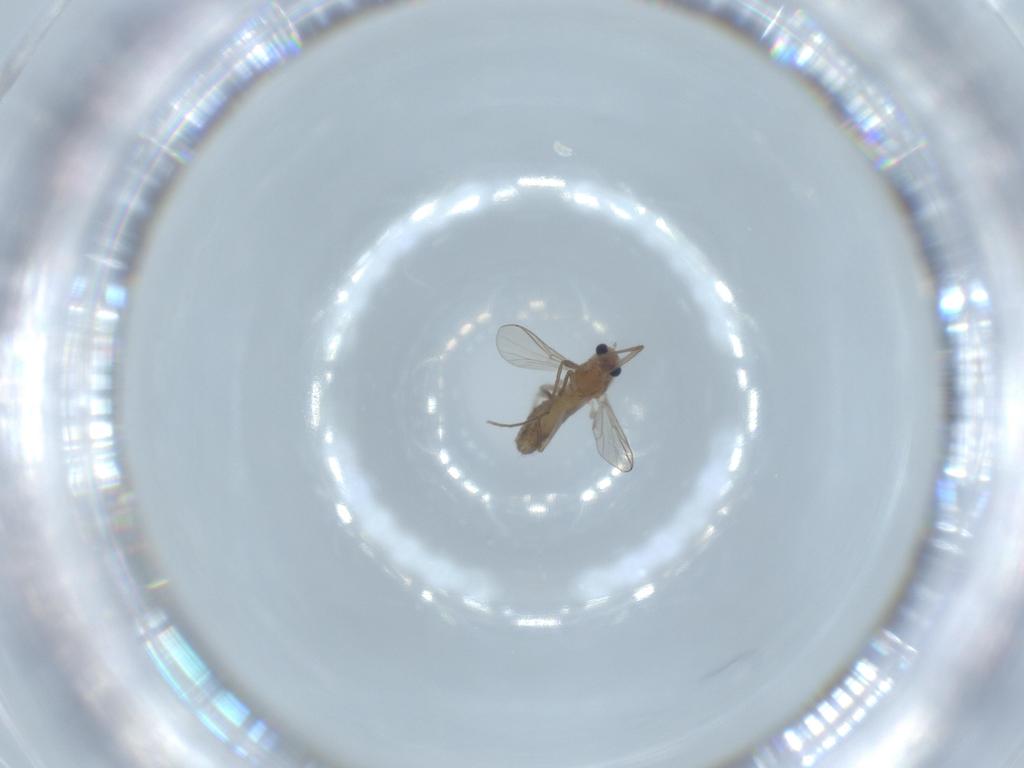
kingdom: Animalia
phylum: Arthropoda
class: Insecta
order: Diptera
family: Chironomidae
